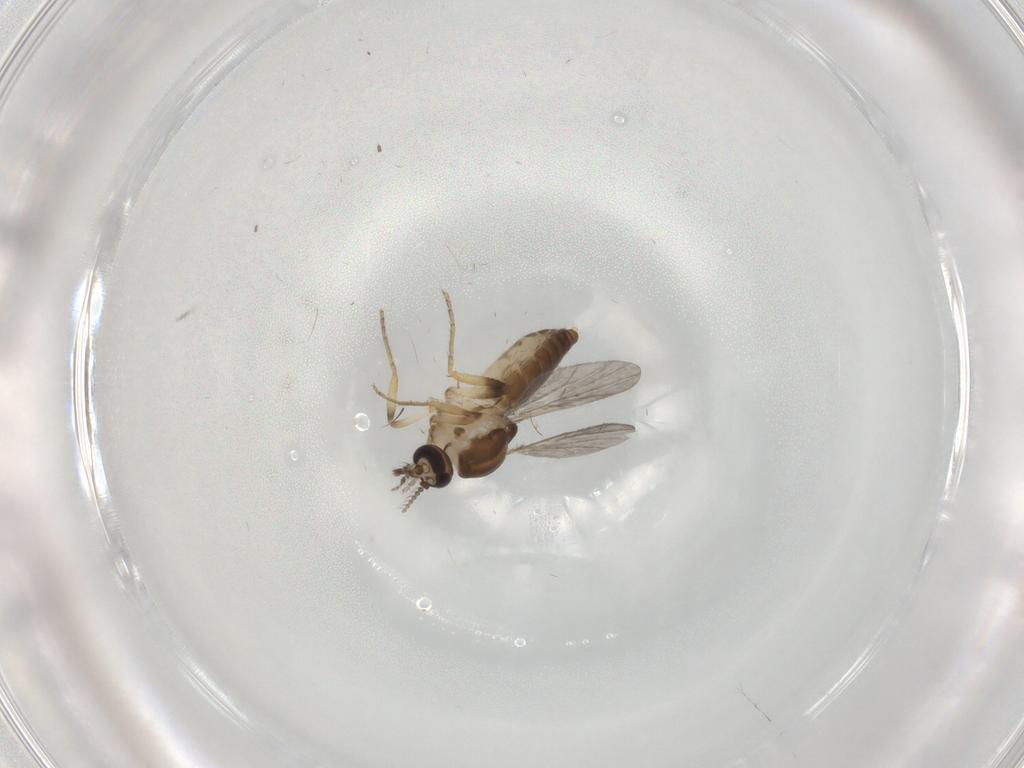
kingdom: Animalia
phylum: Arthropoda
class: Insecta
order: Diptera
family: Ceratopogonidae
